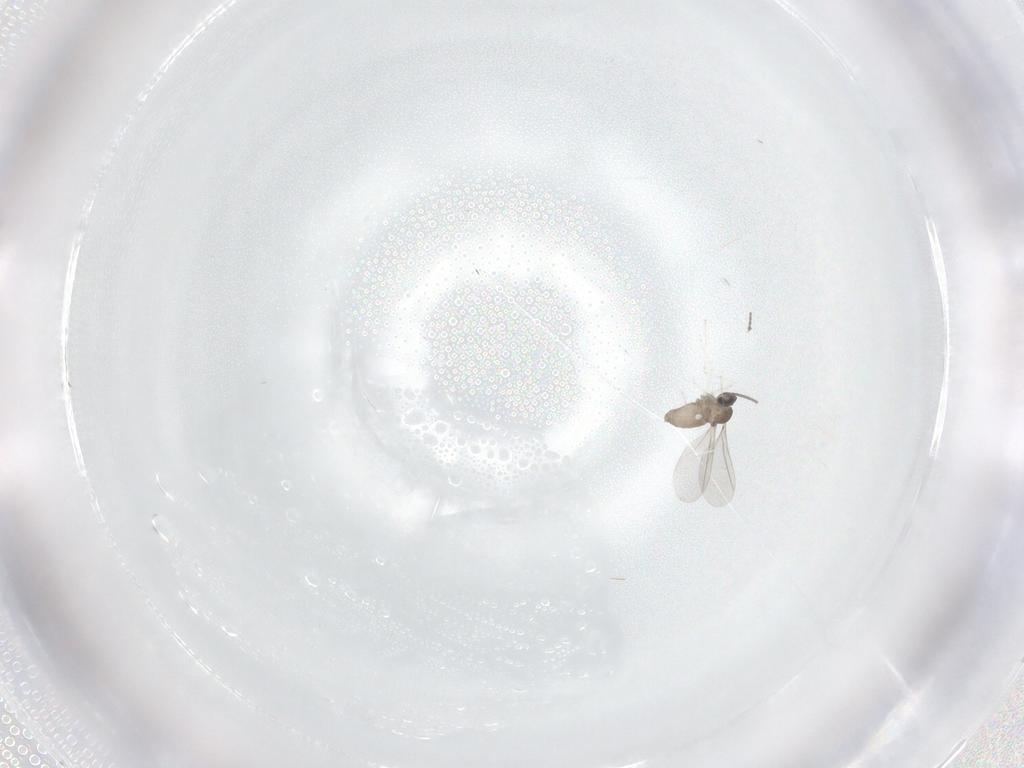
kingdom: Animalia
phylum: Arthropoda
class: Insecta
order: Diptera
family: Cecidomyiidae
